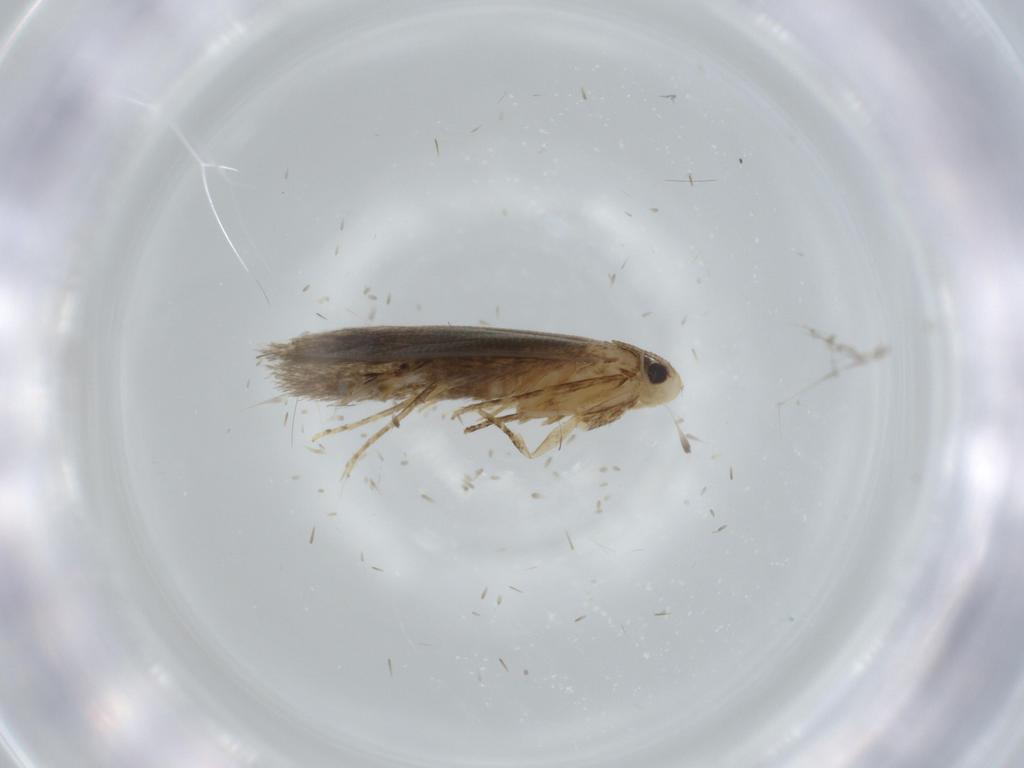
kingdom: Animalia
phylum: Arthropoda
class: Insecta
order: Lepidoptera
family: Tineidae
